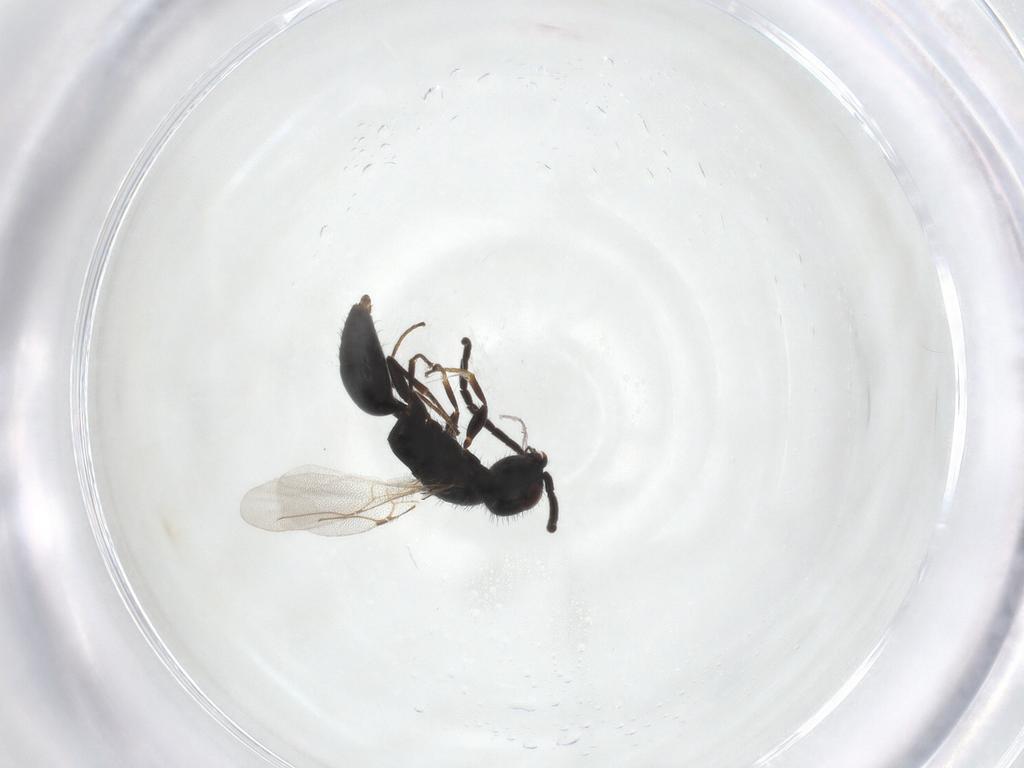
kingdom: Animalia
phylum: Arthropoda
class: Insecta
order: Hymenoptera
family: Bethylidae
